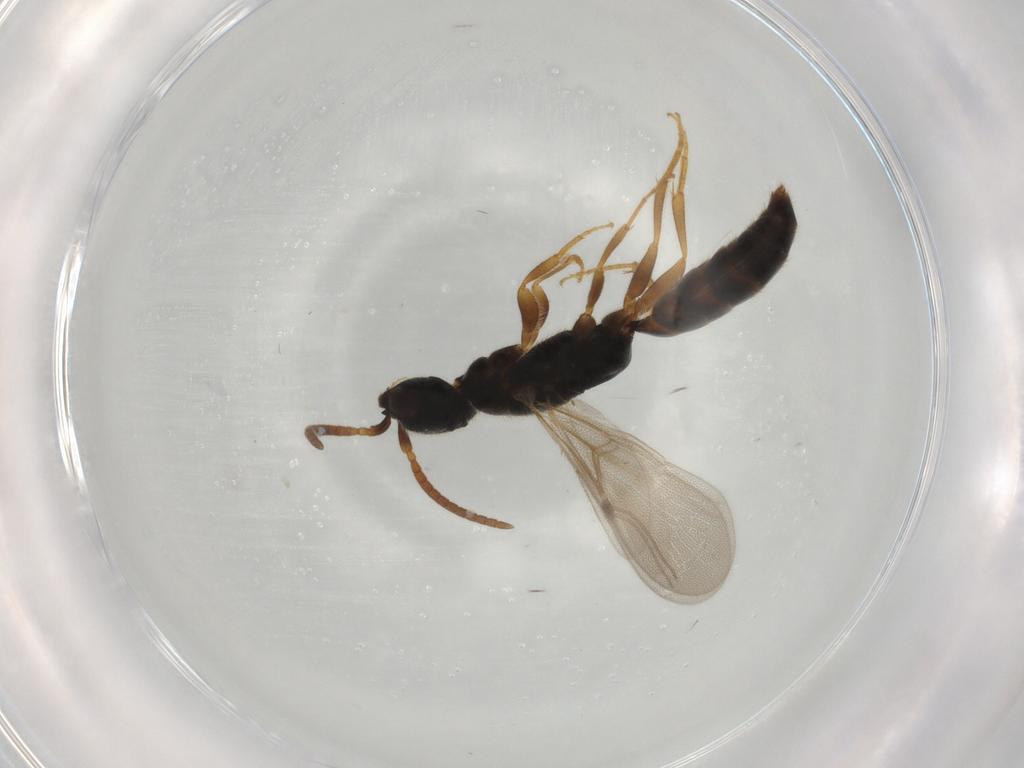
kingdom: Animalia
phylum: Arthropoda
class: Insecta
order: Hymenoptera
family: Bethylidae
